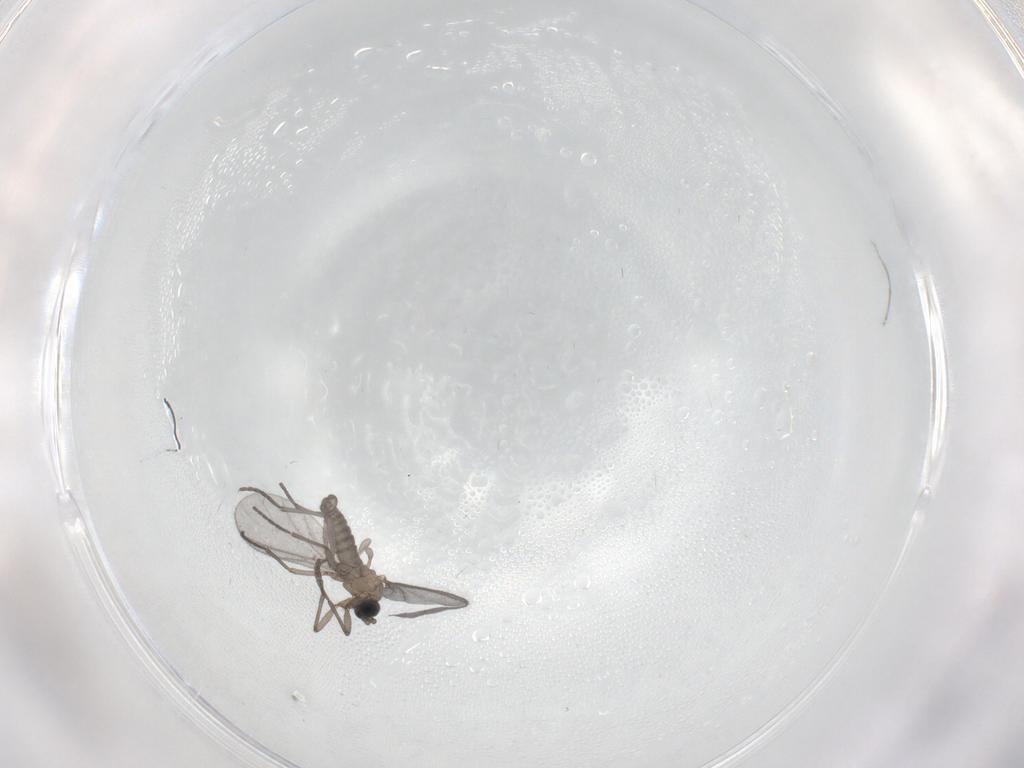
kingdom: Animalia
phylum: Arthropoda
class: Insecta
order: Diptera
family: Sciaridae
